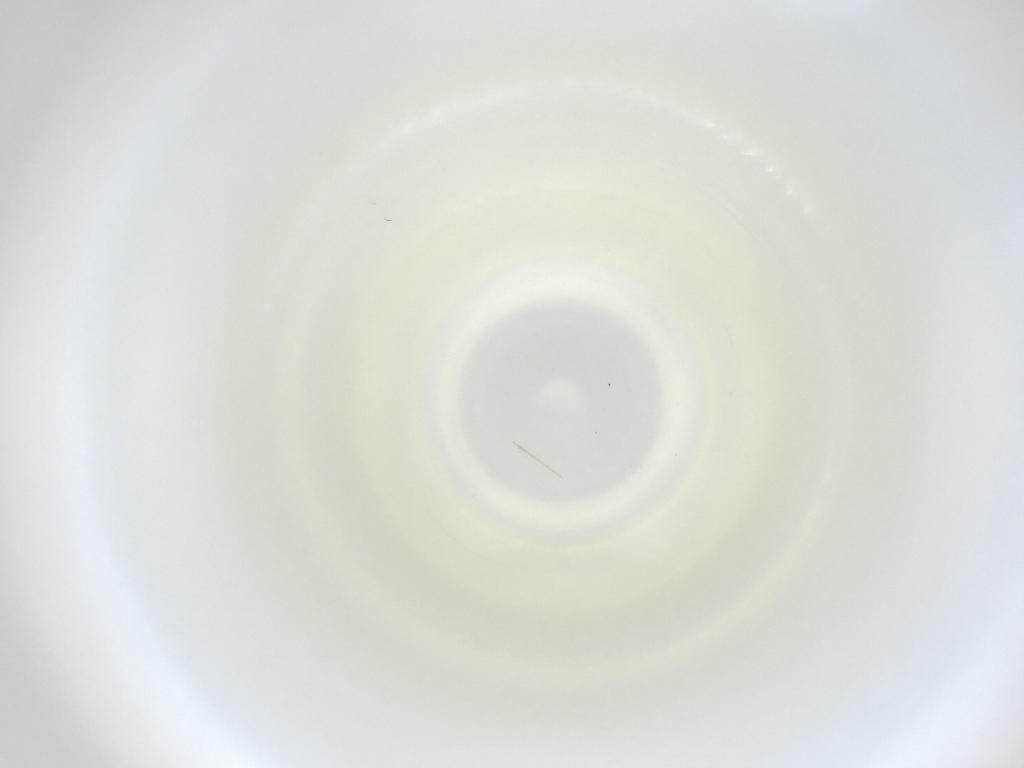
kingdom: Animalia
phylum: Arthropoda
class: Insecta
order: Diptera
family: Cecidomyiidae
